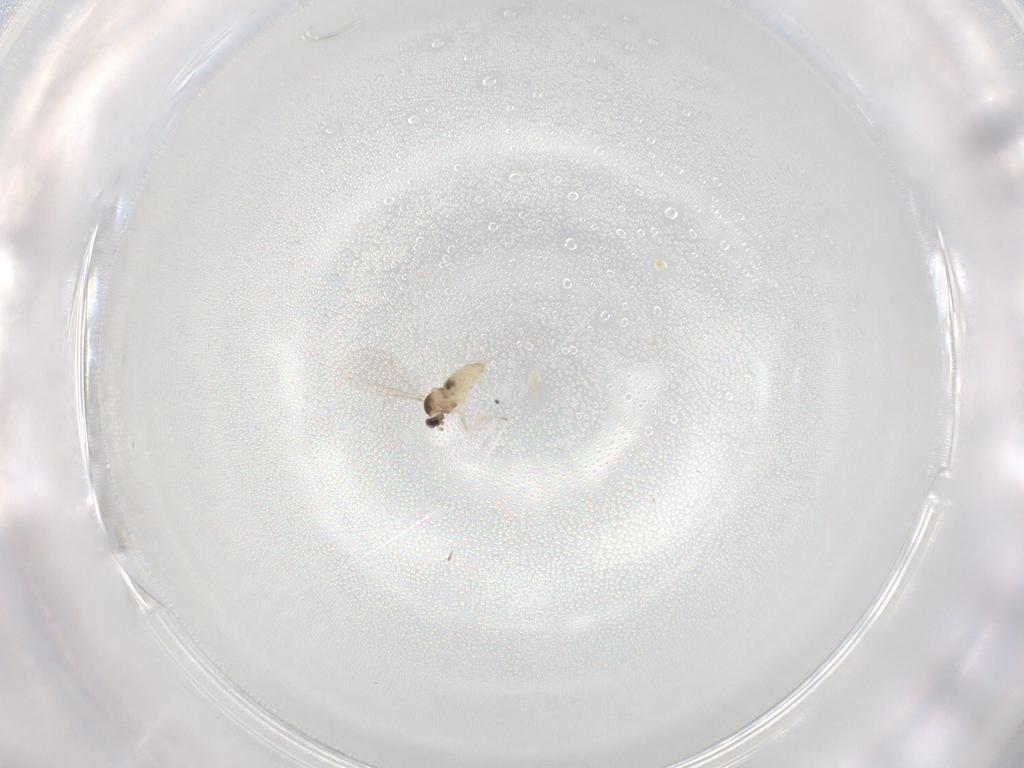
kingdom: Animalia
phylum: Arthropoda
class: Insecta
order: Diptera
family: Cecidomyiidae
